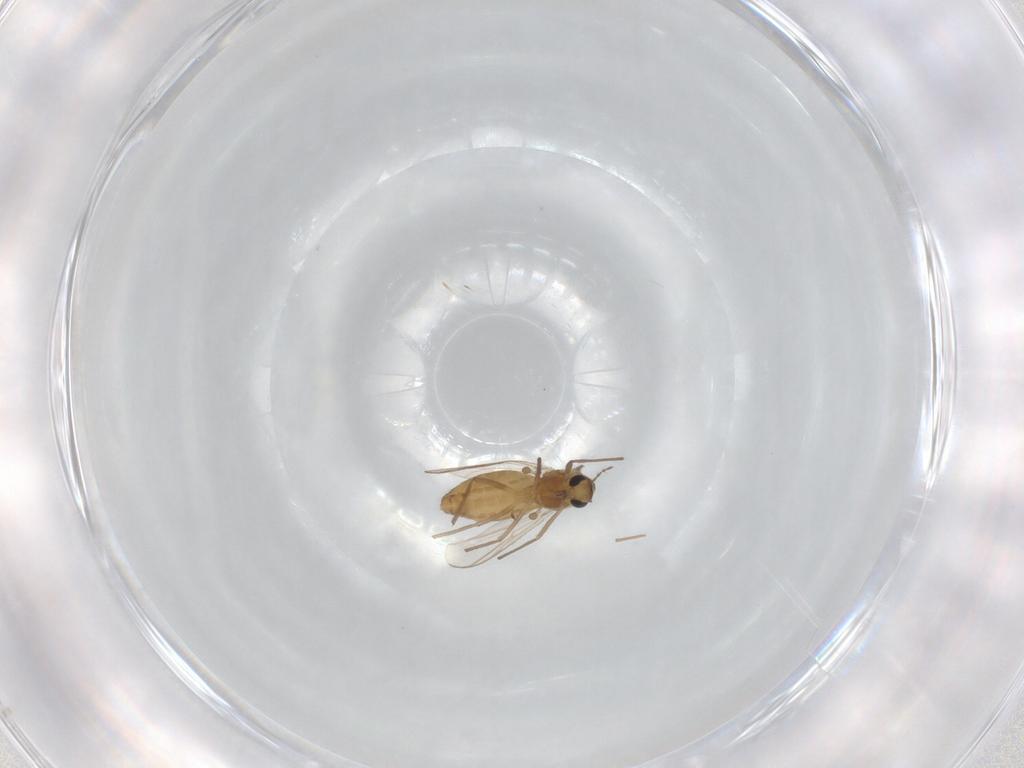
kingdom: Animalia
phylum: Arthropoda
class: Insecta
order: Diptera
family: Chironomidae
